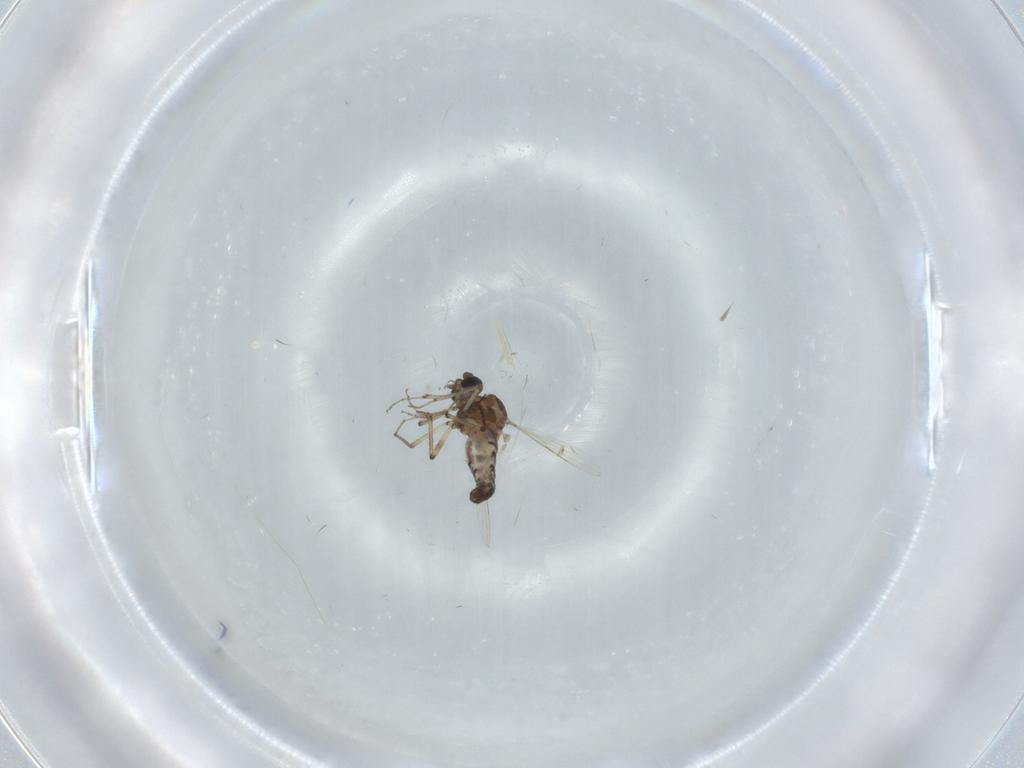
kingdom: Animalia
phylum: Arthropoda
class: Insecta
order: Diptera
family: Ceratopogonidae
